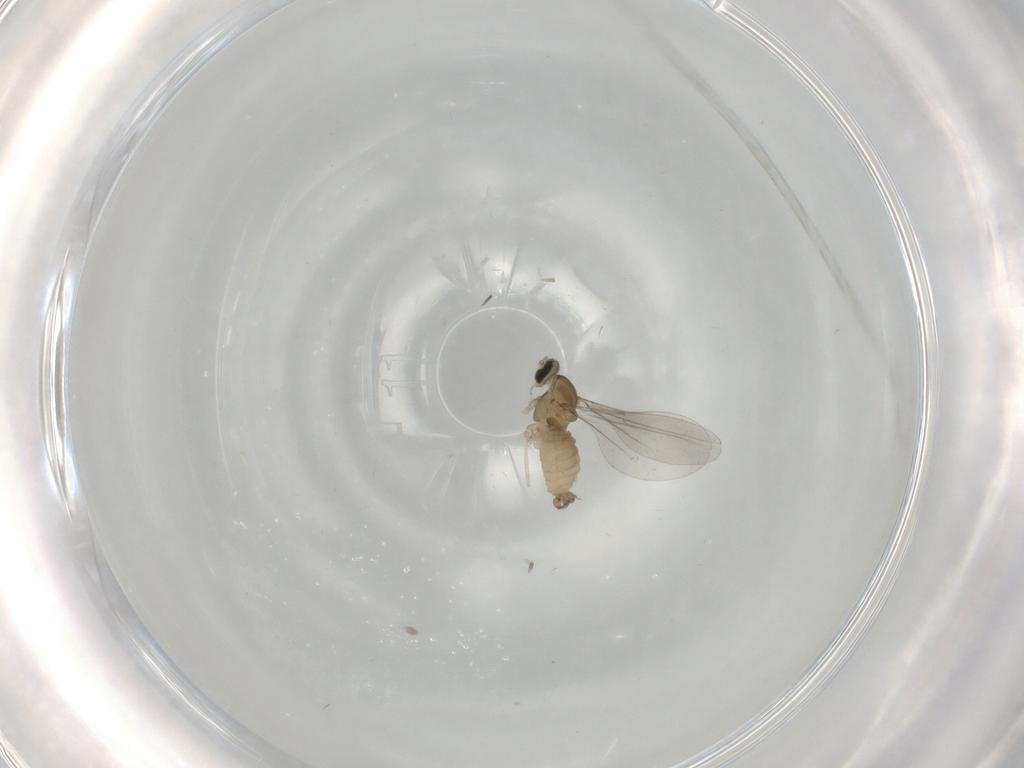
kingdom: Animalia
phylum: Arthropoda
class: Insecta
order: Diptera
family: Cecidomyiidae
